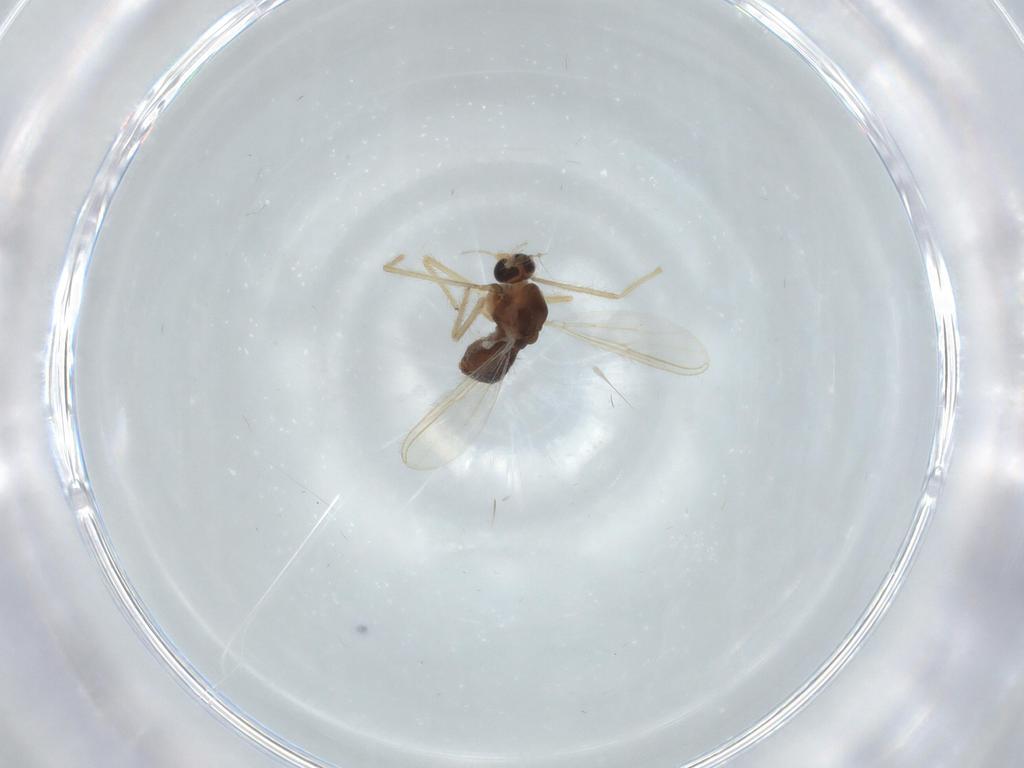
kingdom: Animalia
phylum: Arthropoda
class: Insecta
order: Diptera
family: Chironomidae
